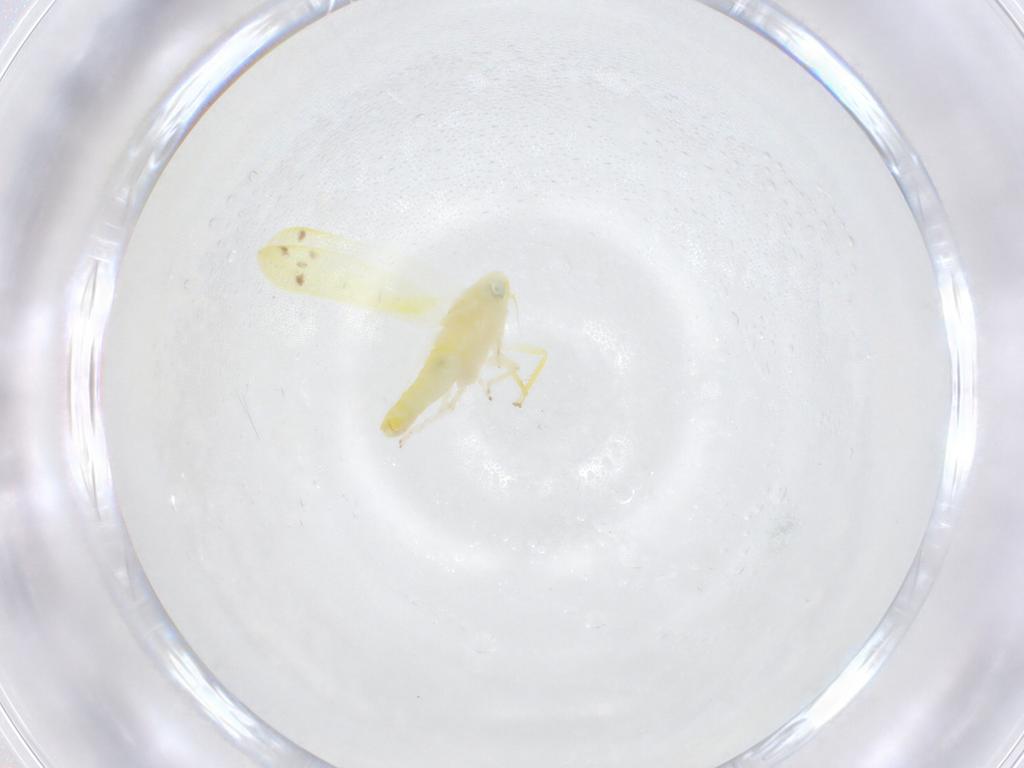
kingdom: Animalia
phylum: Arthropoda
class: Insecta
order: Hemiptera
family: Cicadellidae
